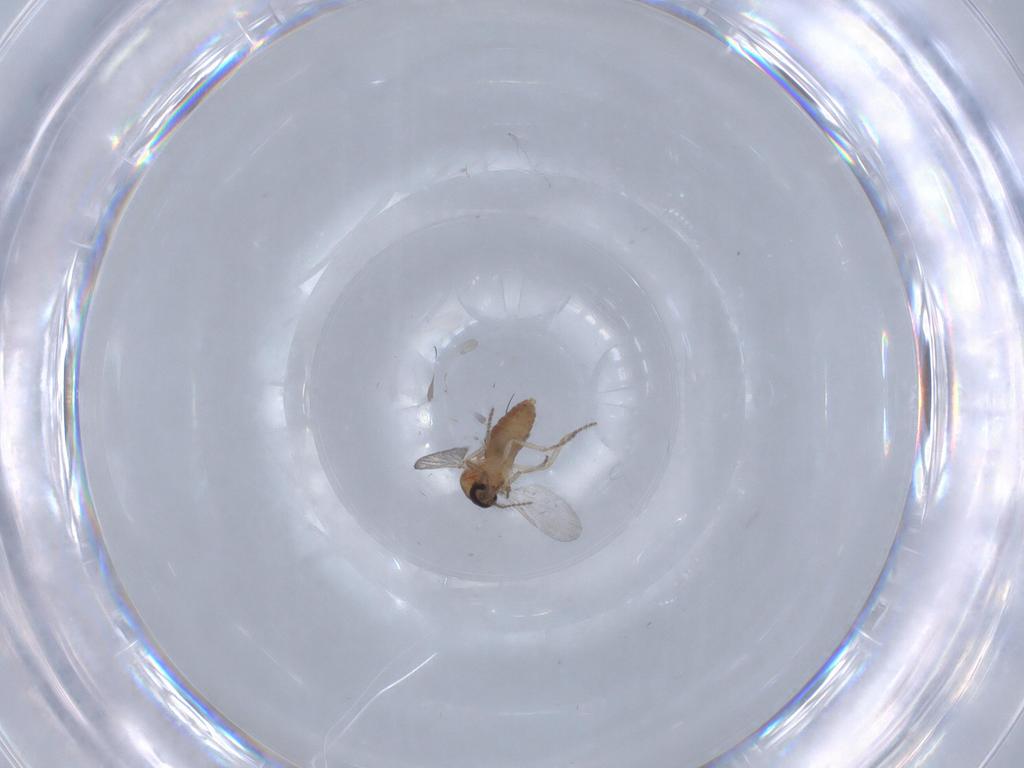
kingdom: Animalia
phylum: Arthropoda
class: Insecta
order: Diptera
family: Ceratopogonidae
